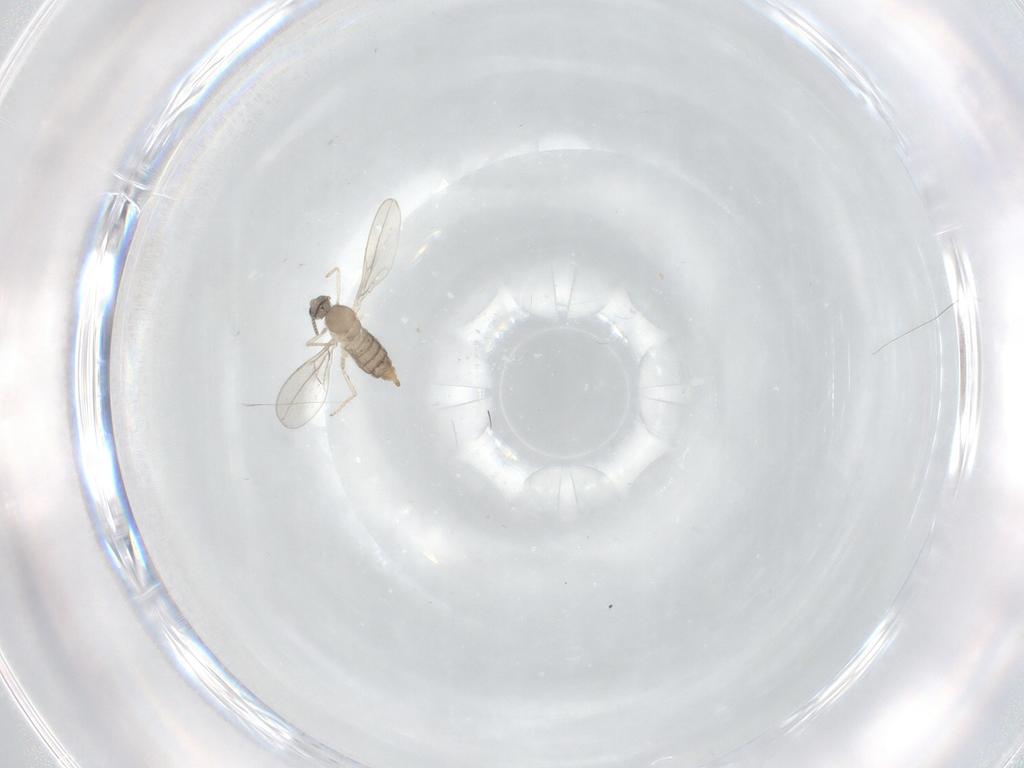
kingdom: Animalia
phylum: Arthropoda
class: Insecta
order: Diptera
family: Cecidomyiidae
